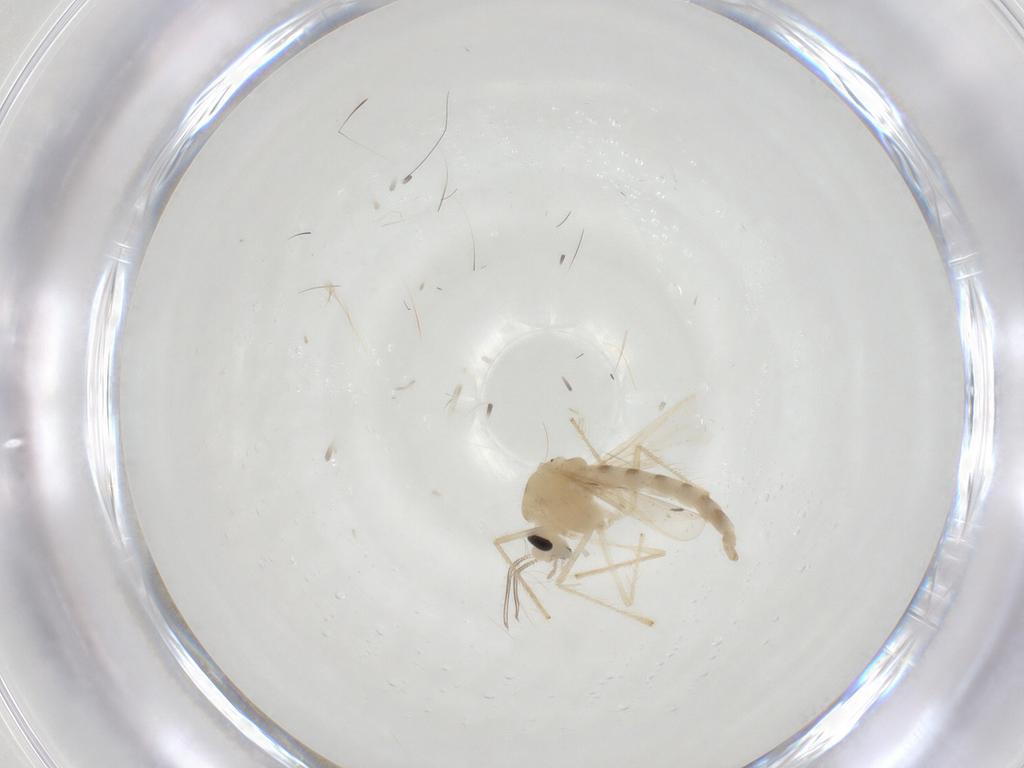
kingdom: Animalia
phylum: Arthropoda
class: Insecta
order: Diptera
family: Chironomidae
